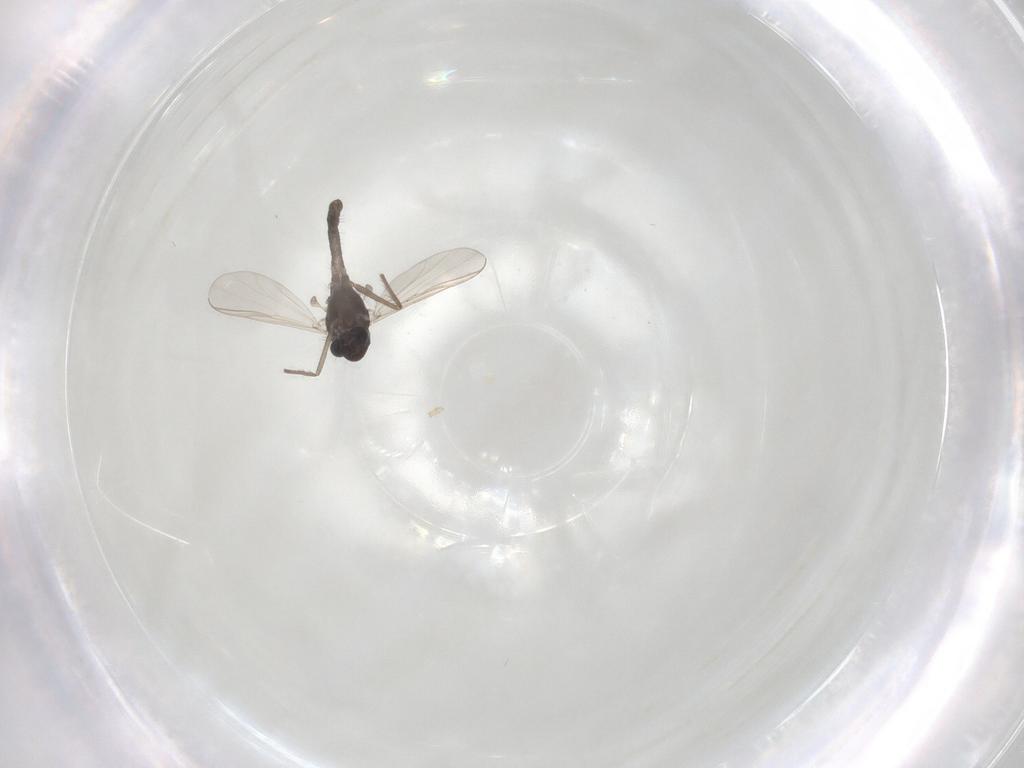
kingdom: Animalia
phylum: Arthropoda
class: Insecta
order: Diptera
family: Chironomidae
